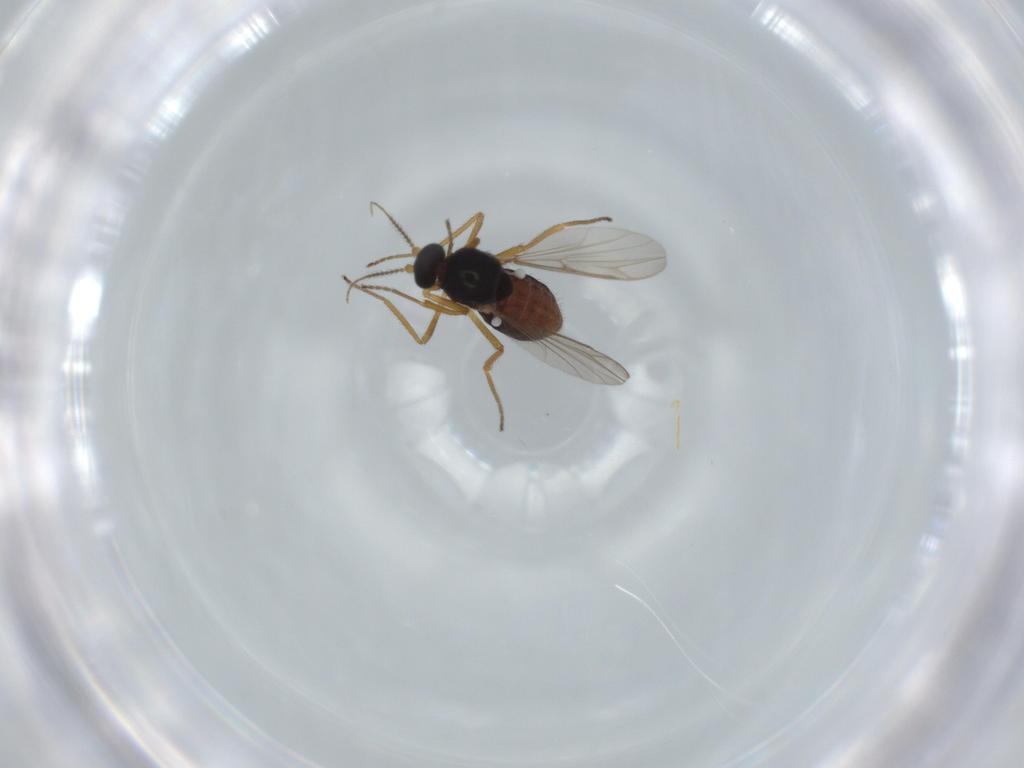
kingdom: Animalia
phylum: Arthropoda
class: Insecta
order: Diptera
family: Ceratopogonidae
